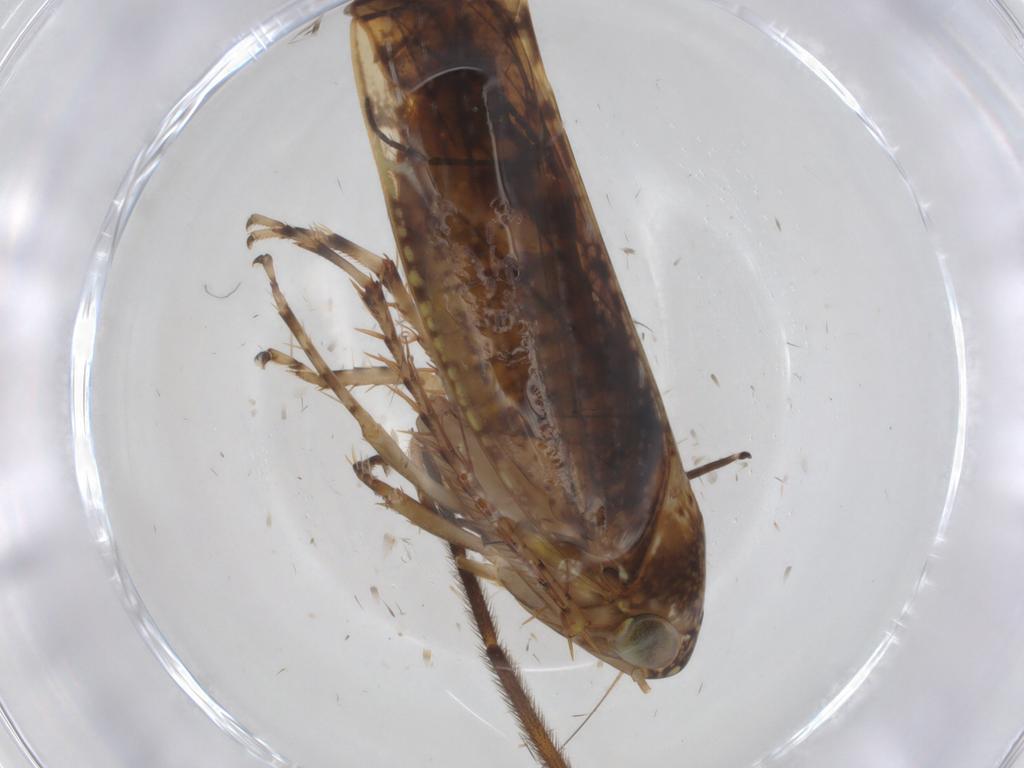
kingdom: Animalia
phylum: Arthropoda
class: Insecta
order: Hemiptera
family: Cicadellidae
